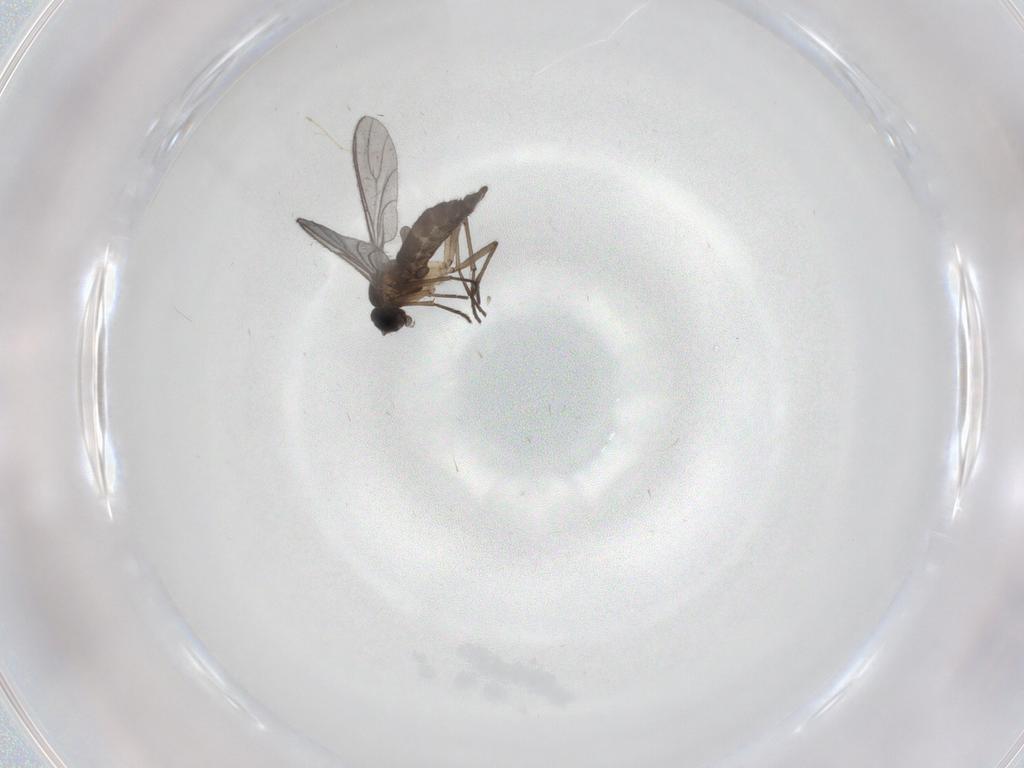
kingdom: Animalia
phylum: Arthropoda
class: Insecta
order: Diptera
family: Sciaridae
